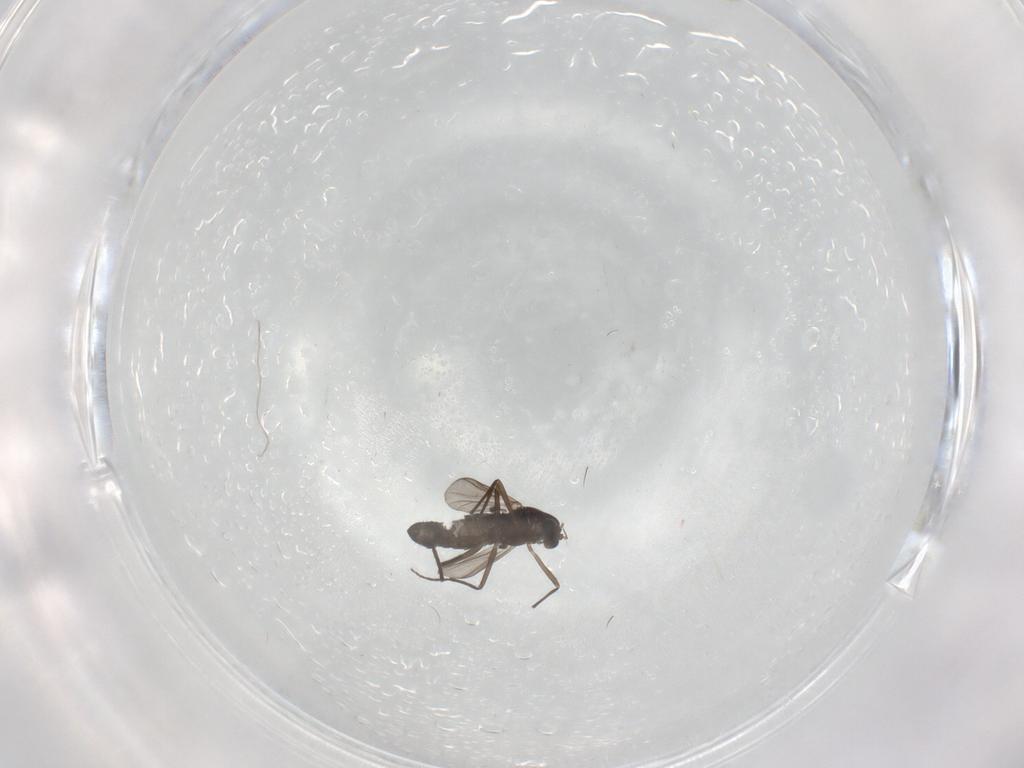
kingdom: Animalia
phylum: Arthropoda
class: Insecta
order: Diptera
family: Chironomidae
